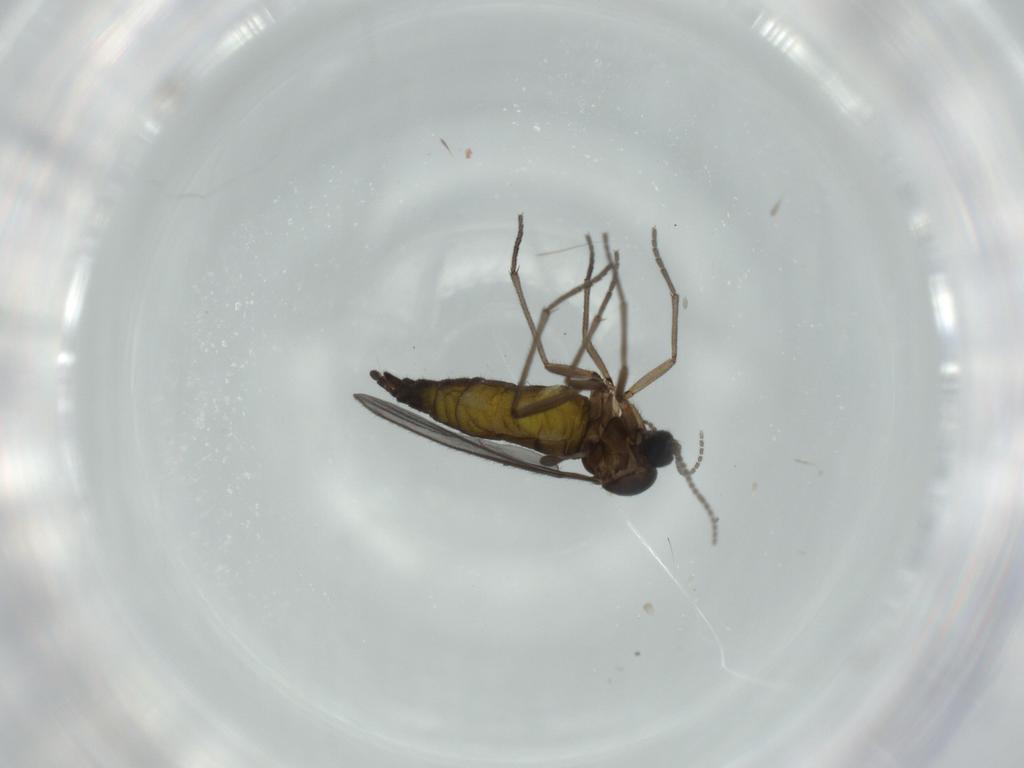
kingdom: Animalia
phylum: Arthropoda
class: Insecta
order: Diptera
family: Sciaridae
